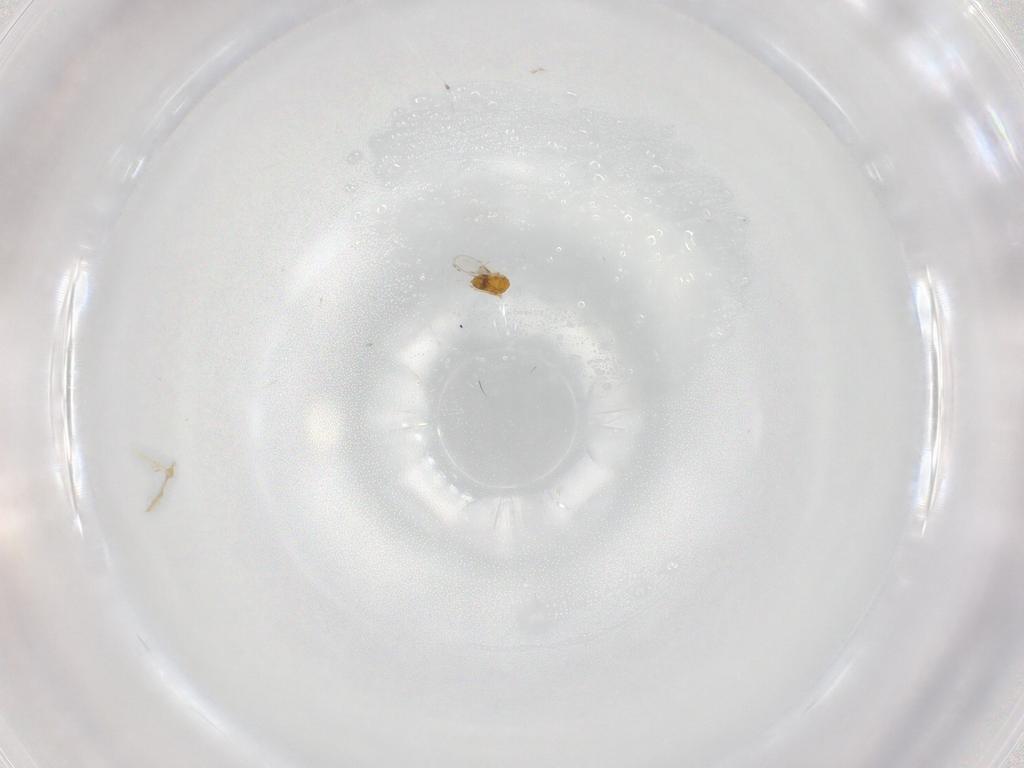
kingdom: Animalia
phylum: Arthropoda
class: Insecta
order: Hymenoptera
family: Trichogrammatidae
